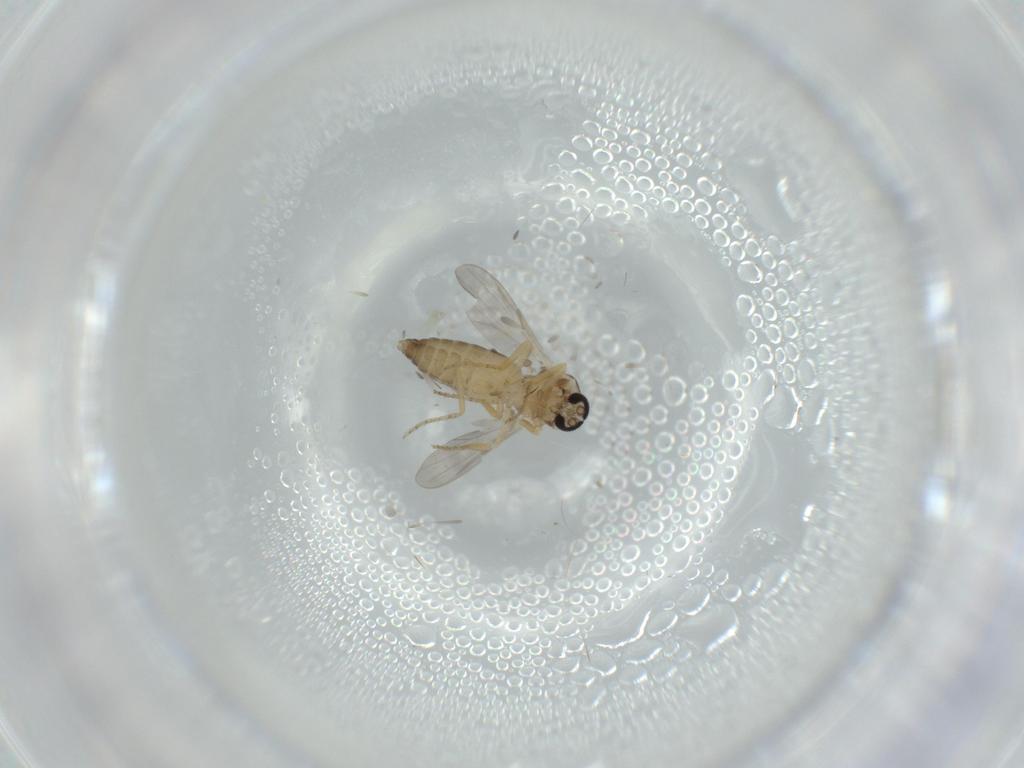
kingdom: Animalia
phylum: Arthropoda
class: Insecta
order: Diptera
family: Ceratopogonidae
